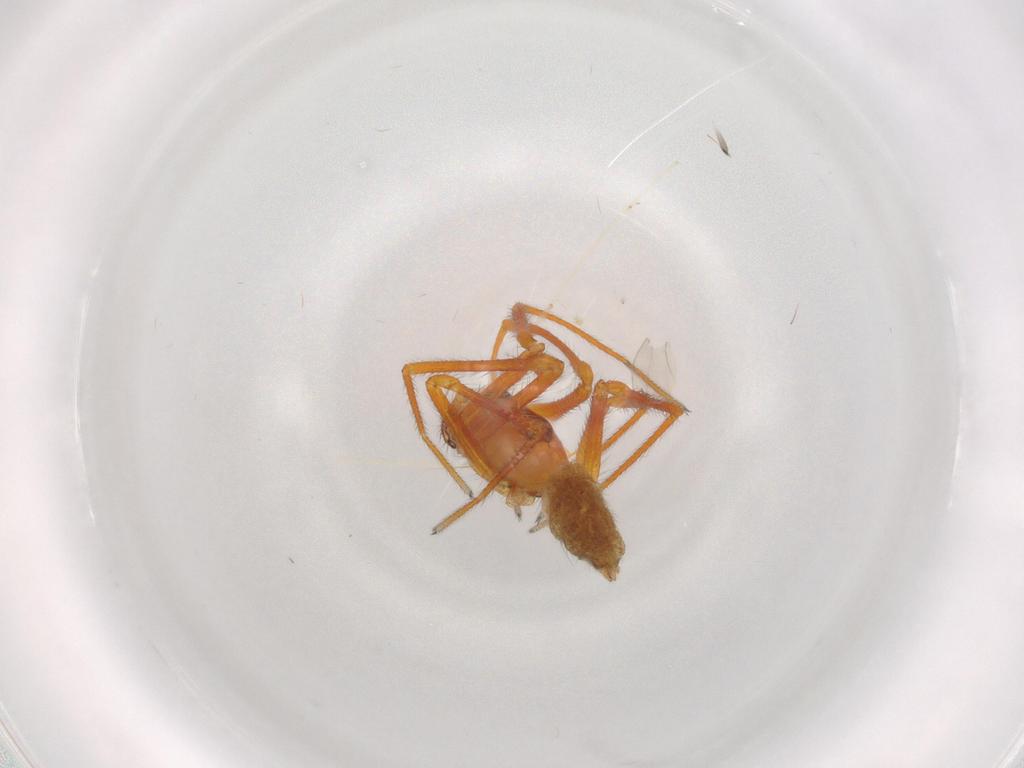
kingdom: Animalia
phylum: Arthropoda
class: Arachnida
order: Araneae
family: Linyphiidae
